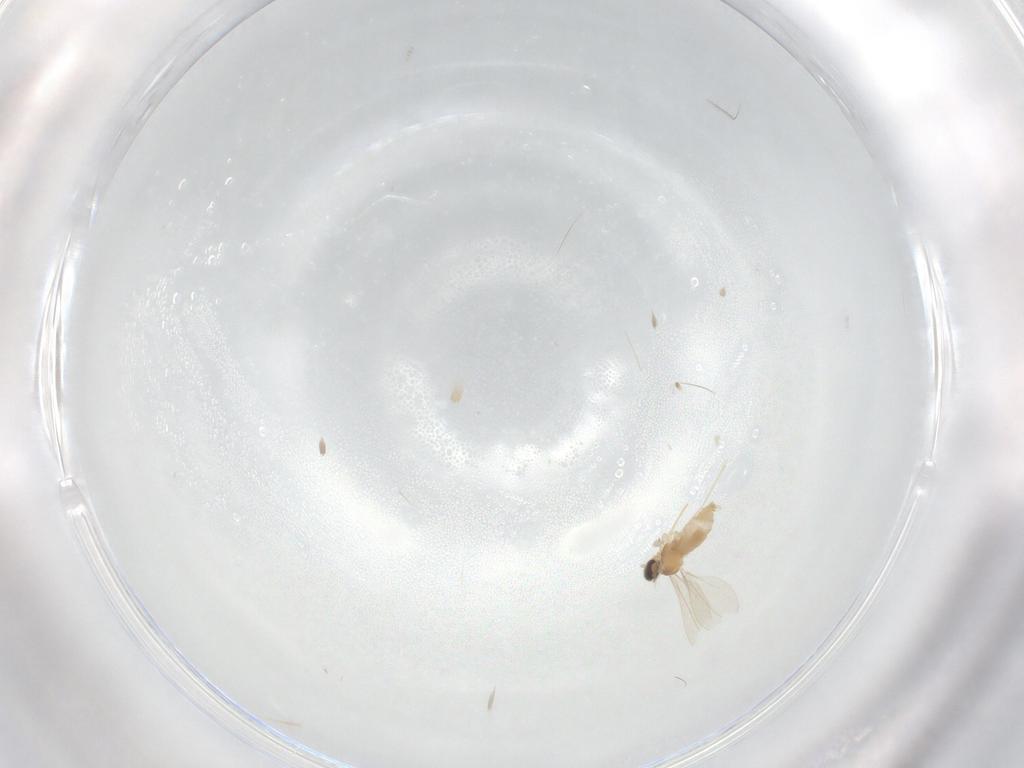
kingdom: Animalia
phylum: Arthropoda
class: Insecta
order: Diptera
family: Cecidomyiidae
